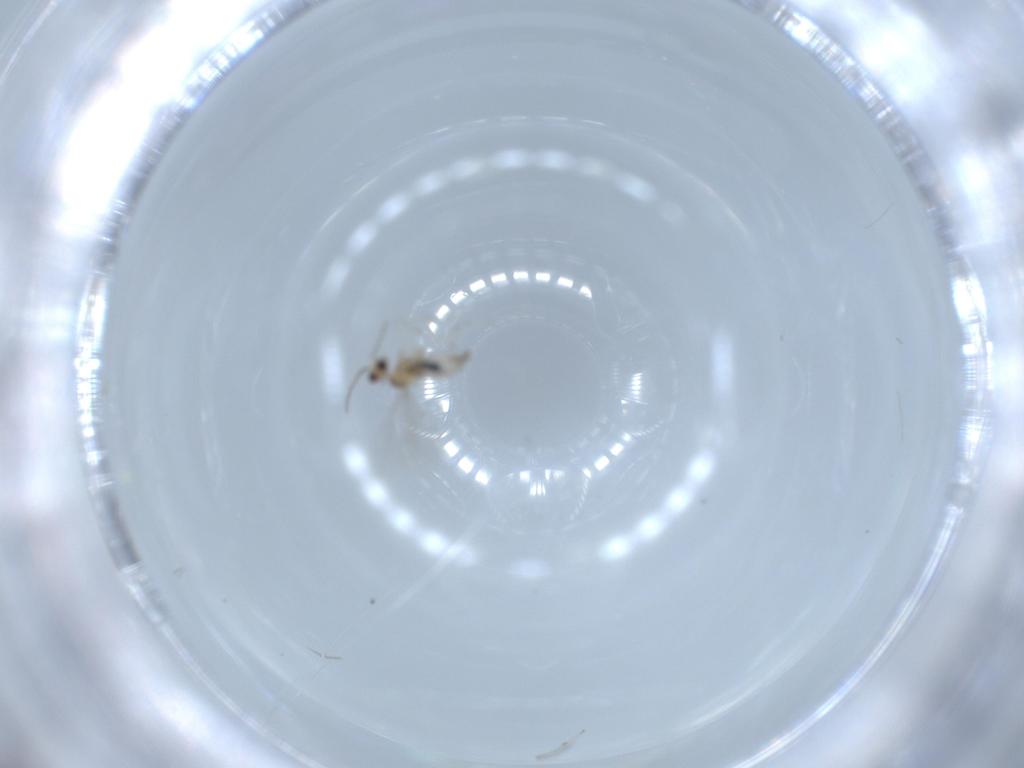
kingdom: Animalia
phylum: Arthropoda
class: Insecta
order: Diptera
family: Cecidomyiidae
